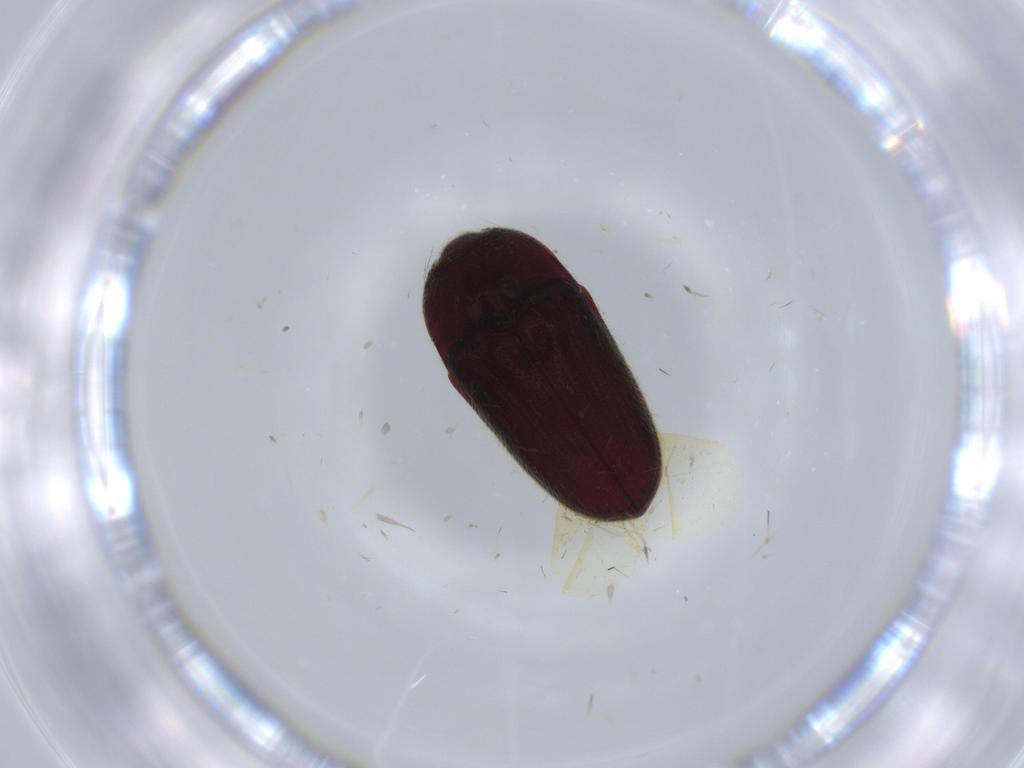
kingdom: Animalia
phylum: Arthropoda
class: Insecta
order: Coleoptera
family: Throscidae
